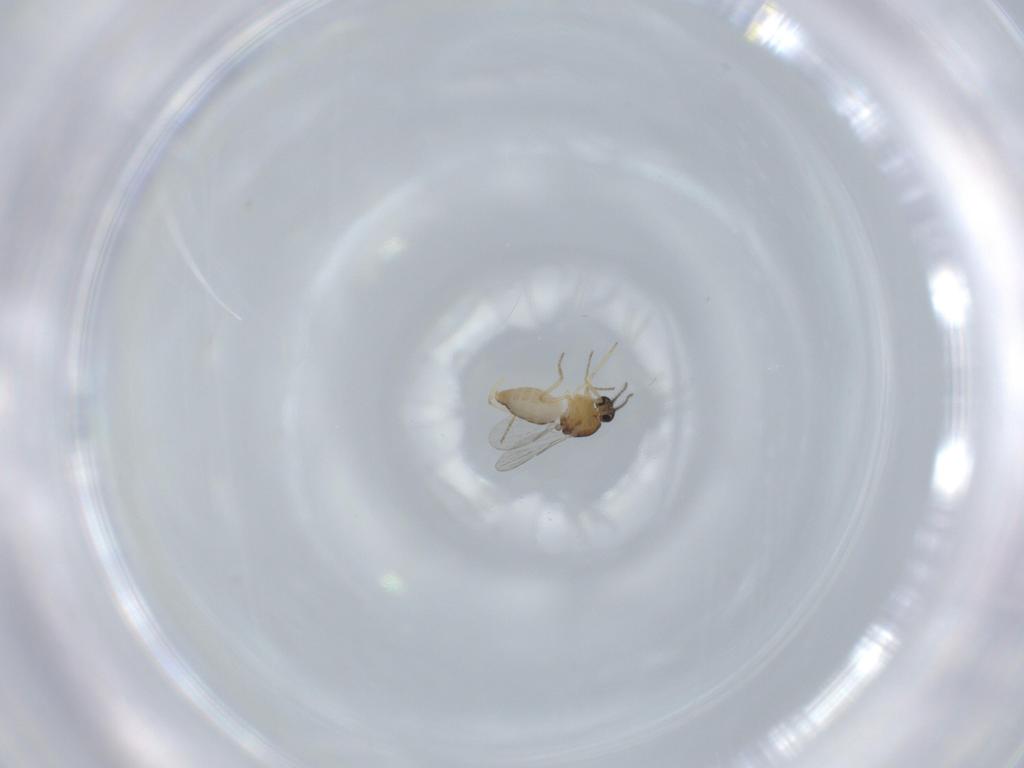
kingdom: Animalia
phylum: Arthropoda
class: Insecta
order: Diptera
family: Ceratopogonidae
